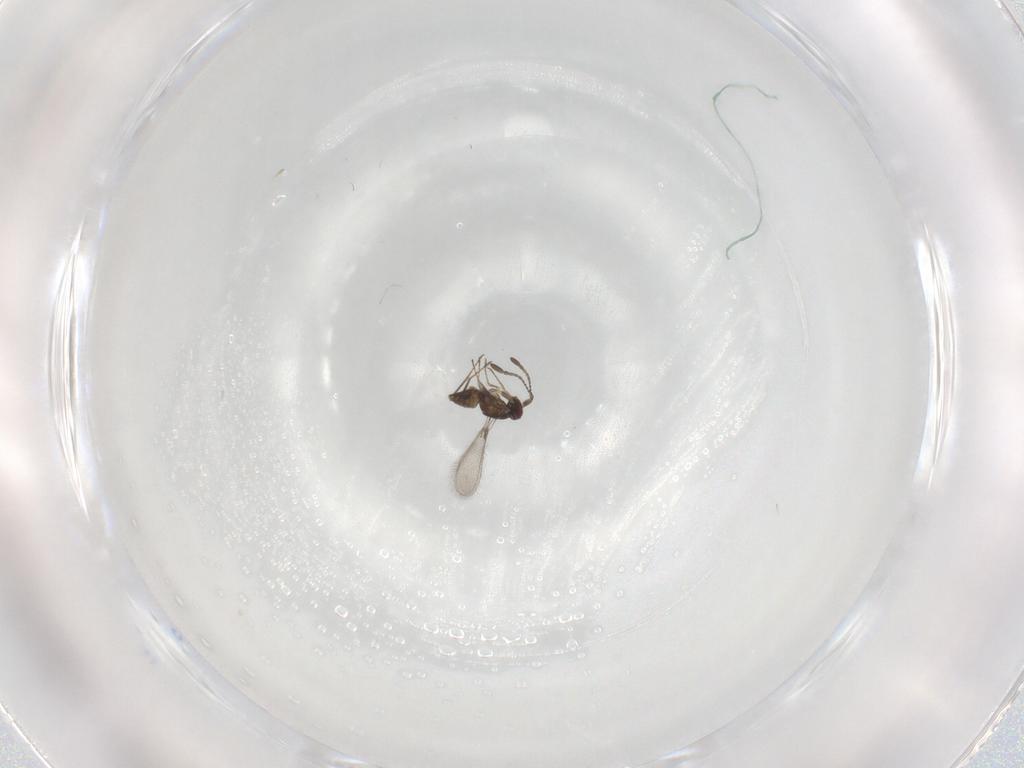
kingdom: Animalia
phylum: Arthropoda
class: Insecta
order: Hymenoptera
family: Mymaridae
